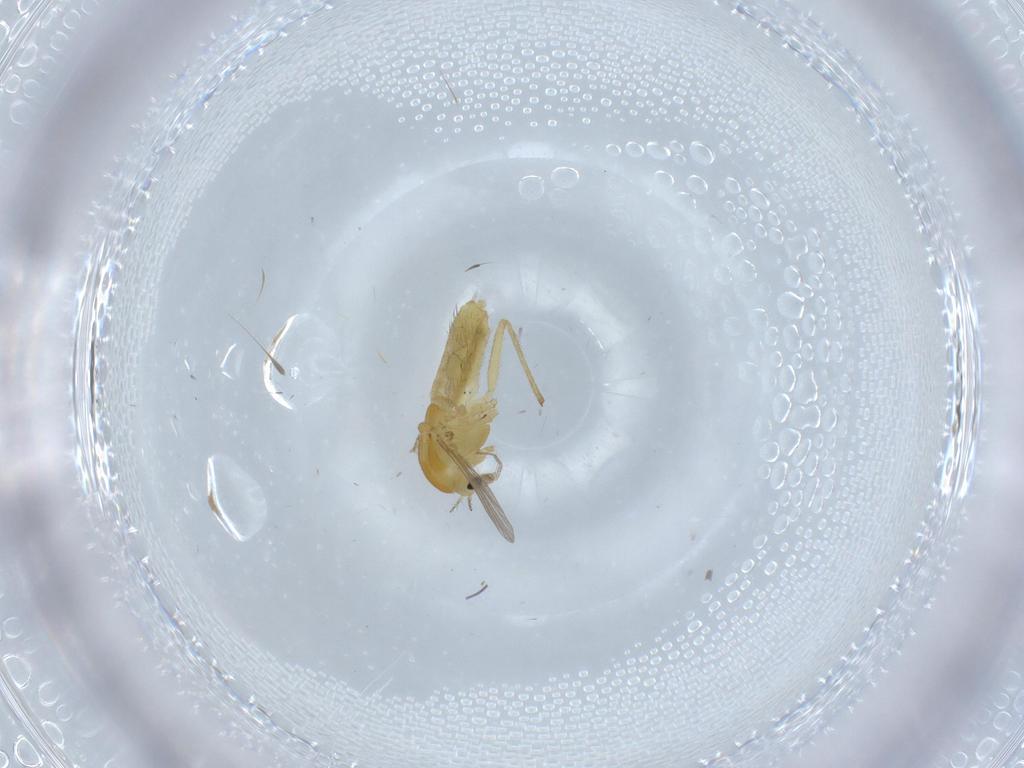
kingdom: Animalia
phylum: Arthropoda
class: Insecta
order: Diptera
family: Chironomidae
